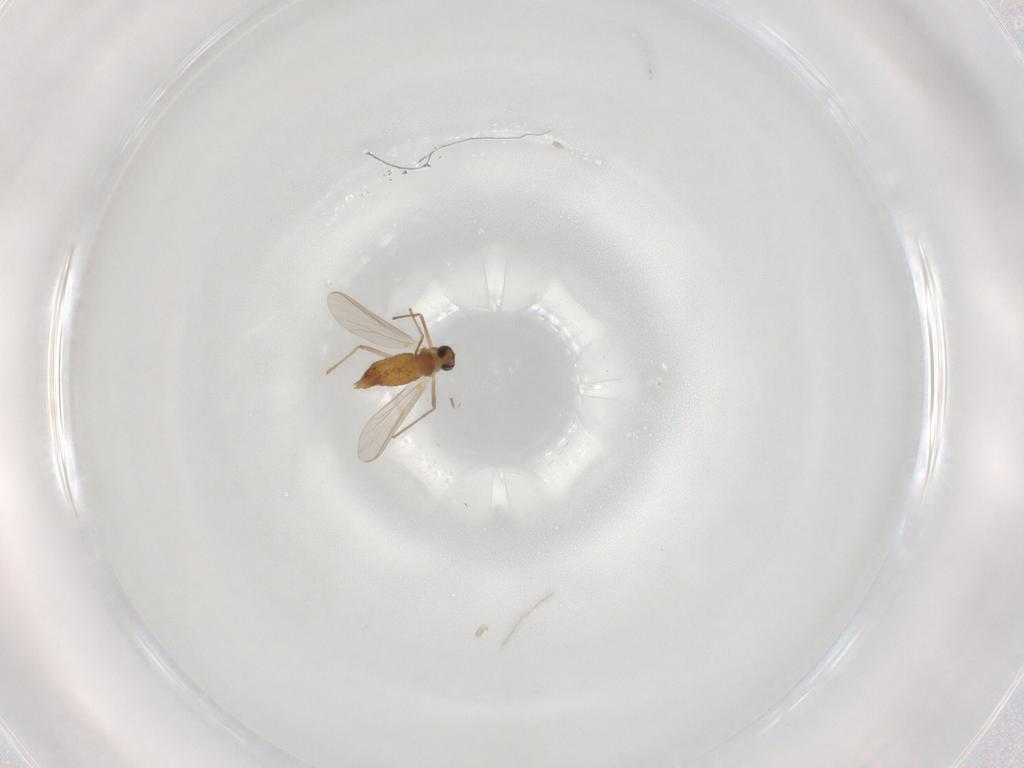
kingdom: Animalia
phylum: Arthropoda
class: Insecta
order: Diptera
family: Chironomidae
